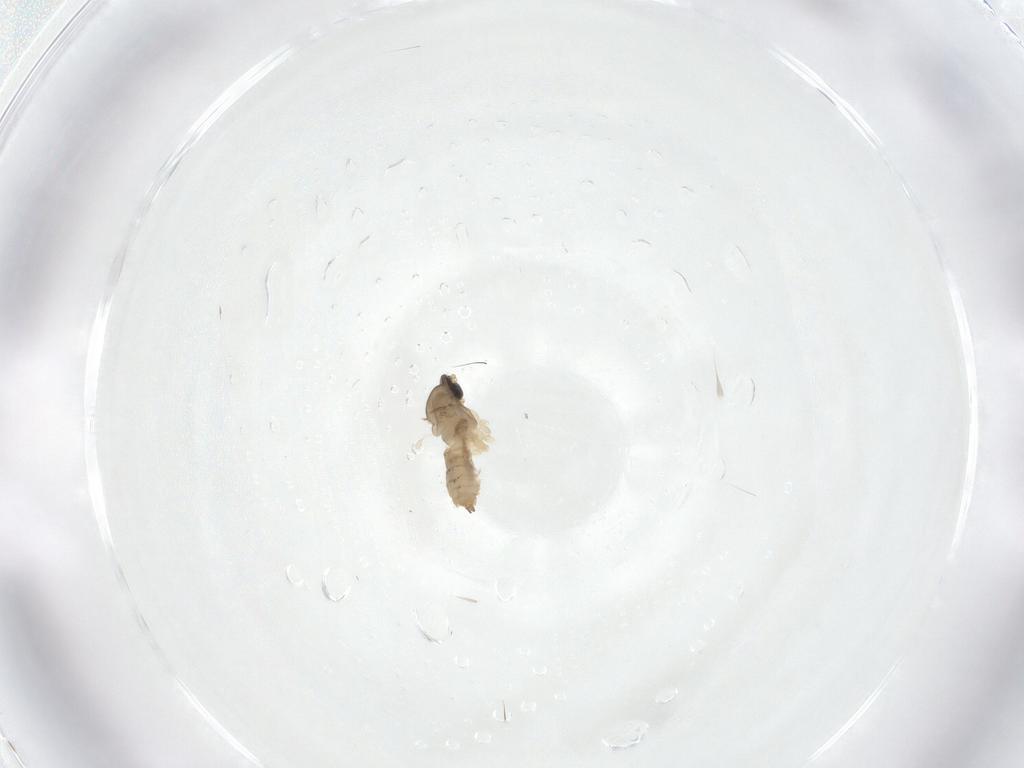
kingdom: Animalia
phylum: Arthropoda
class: Insecta
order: Diptera
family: Cecidomyiidae
